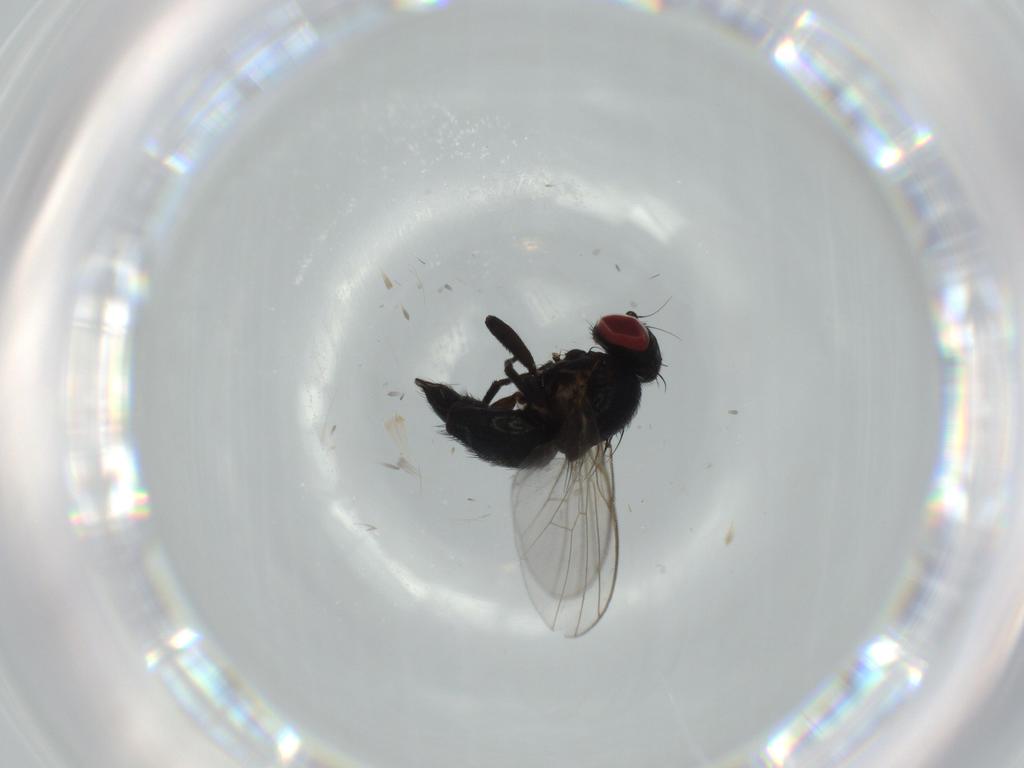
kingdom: Animalia
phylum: Arthropoda
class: Insecta
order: Diptera
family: Agromyzidae
